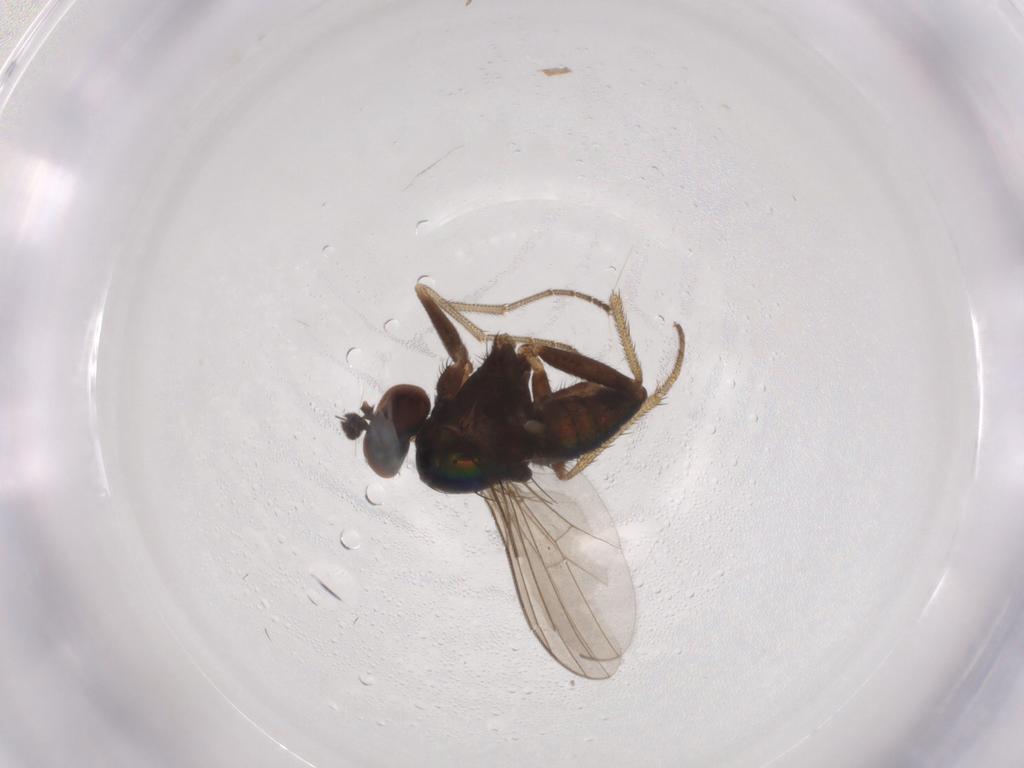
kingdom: Animalia
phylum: Arthropoda
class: Insecta
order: Diptera
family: Dolichopodidae
